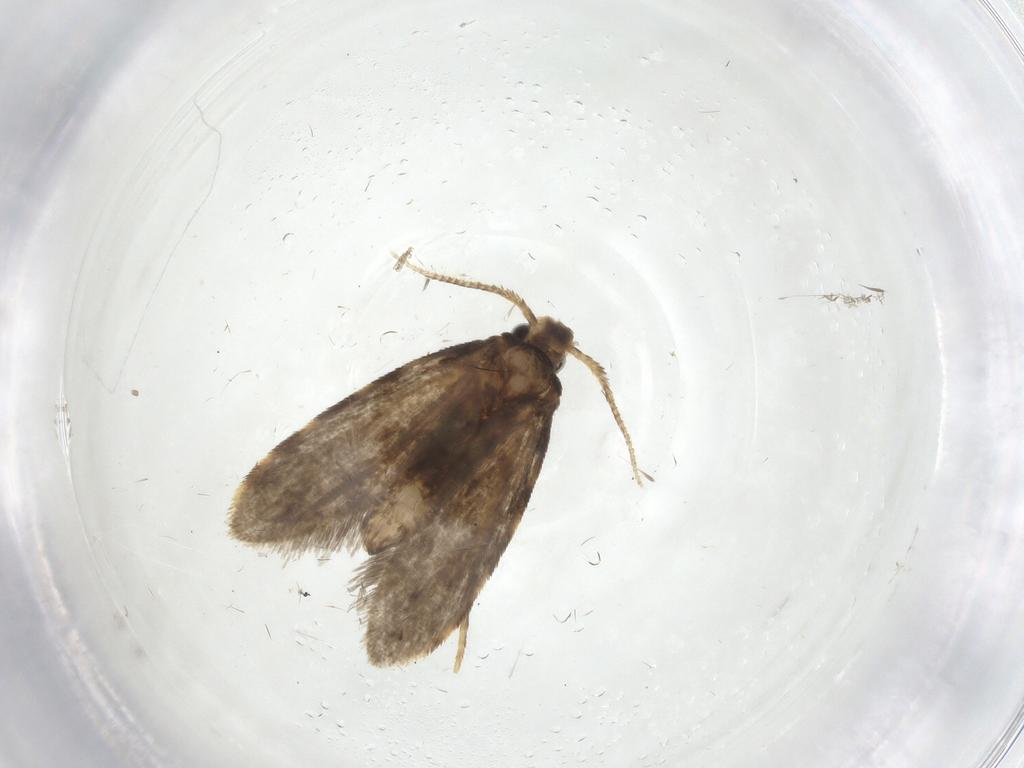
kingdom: Animalia
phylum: Arthropoda
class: Insecta
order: Lepidoptera
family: Psychidae
